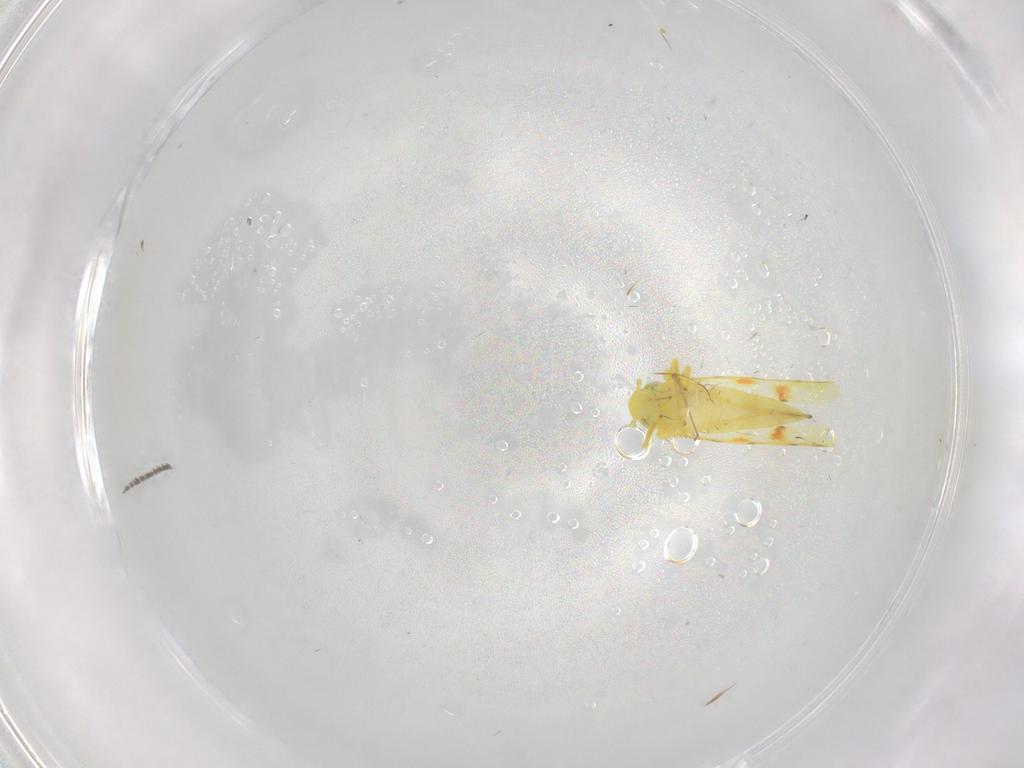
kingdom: Animalia
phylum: Arthropoda
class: Insecta
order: Hemiptera
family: Cicadellidae
